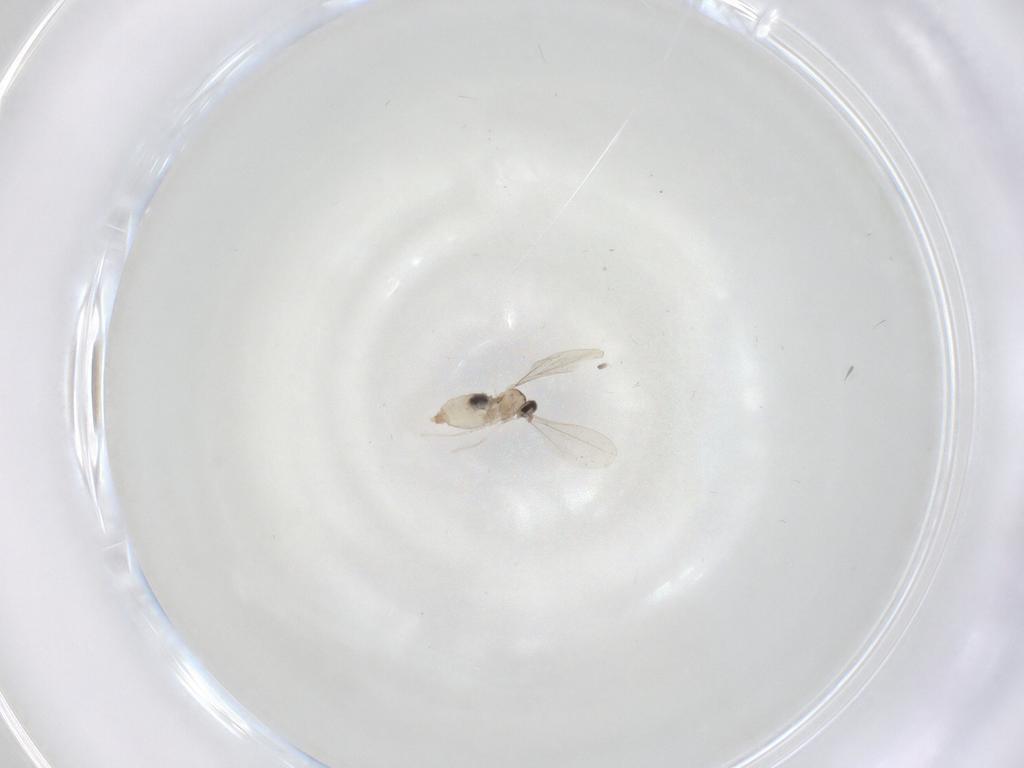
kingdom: Animalia
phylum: Arthropoda
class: Insecta
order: Diptera
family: Cecidomyiidae
